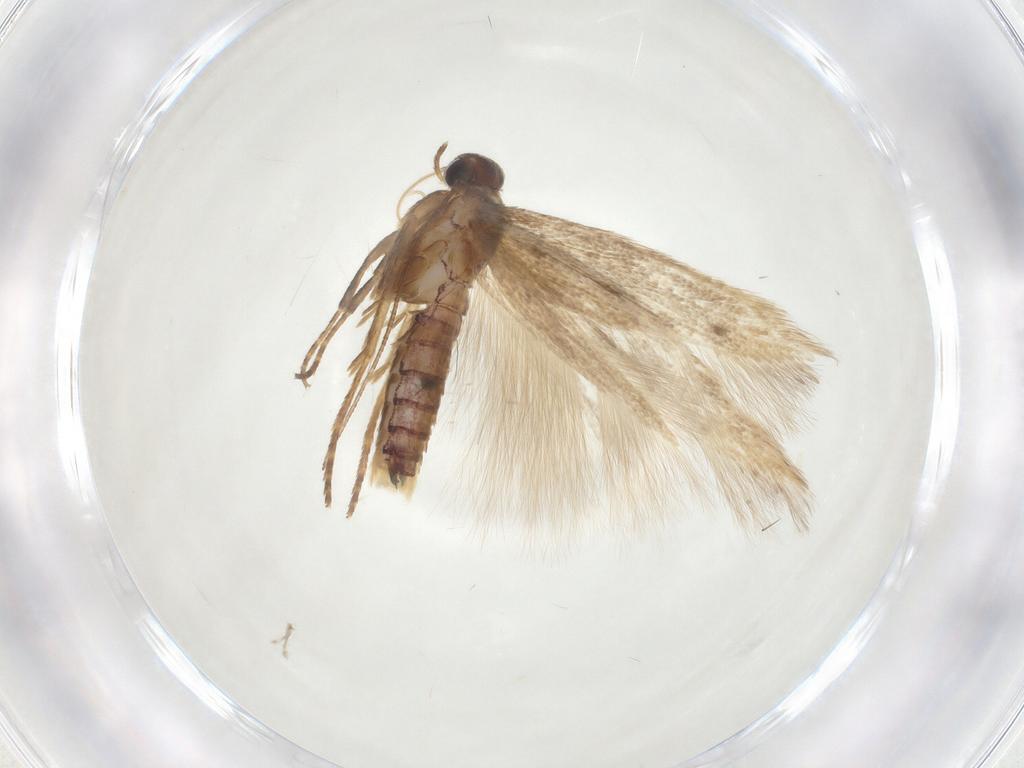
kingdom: Animalia
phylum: Arthropoda
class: Insecta
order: Lepidoptera
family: Scythrididae
